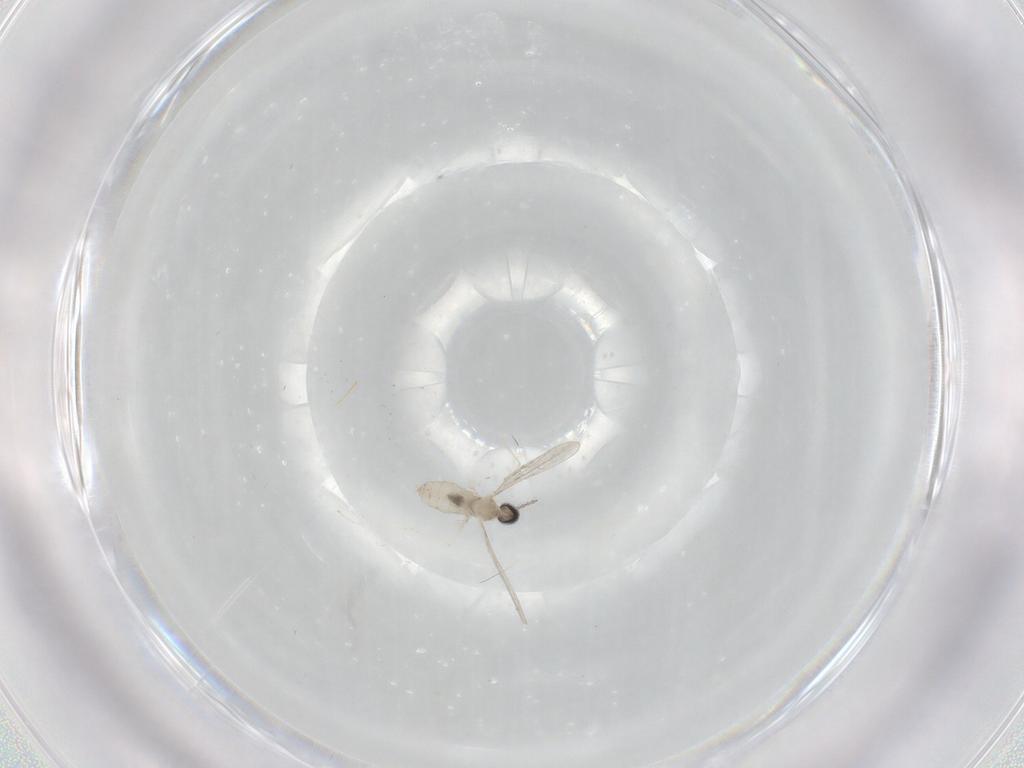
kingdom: Animalia
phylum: Arthropoda
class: Insecta
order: Diptera
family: Cecidomyiidae
